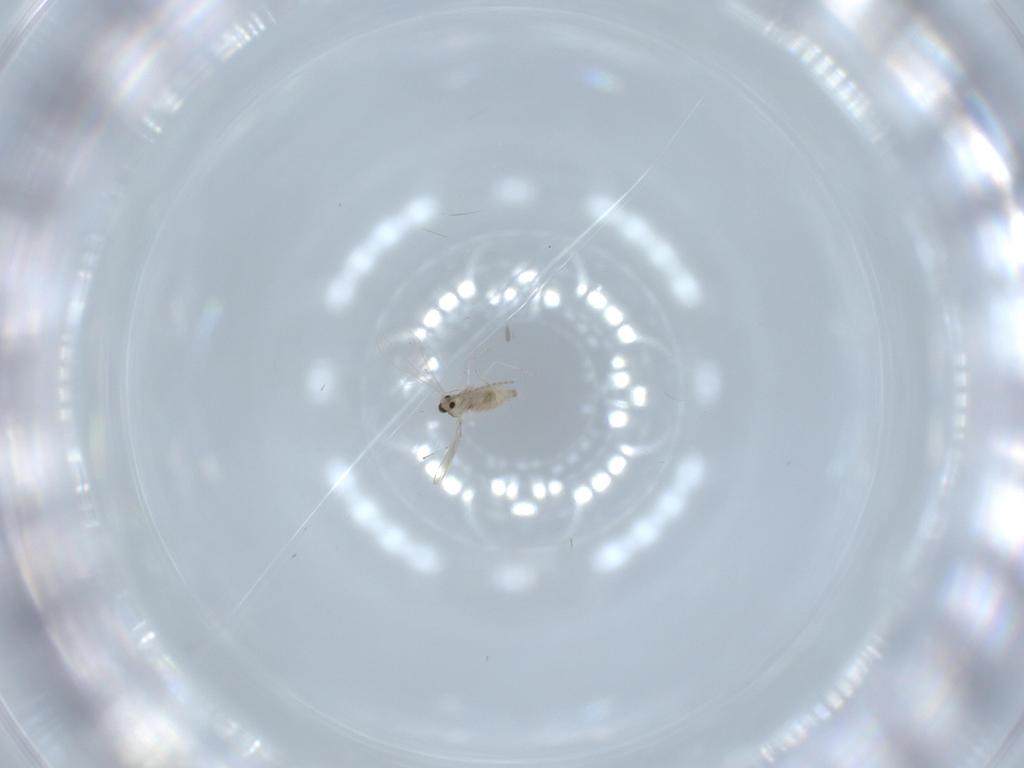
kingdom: Animalia
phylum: Arthropoda
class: Insecta
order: Diptera
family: Cecidomyiidae
